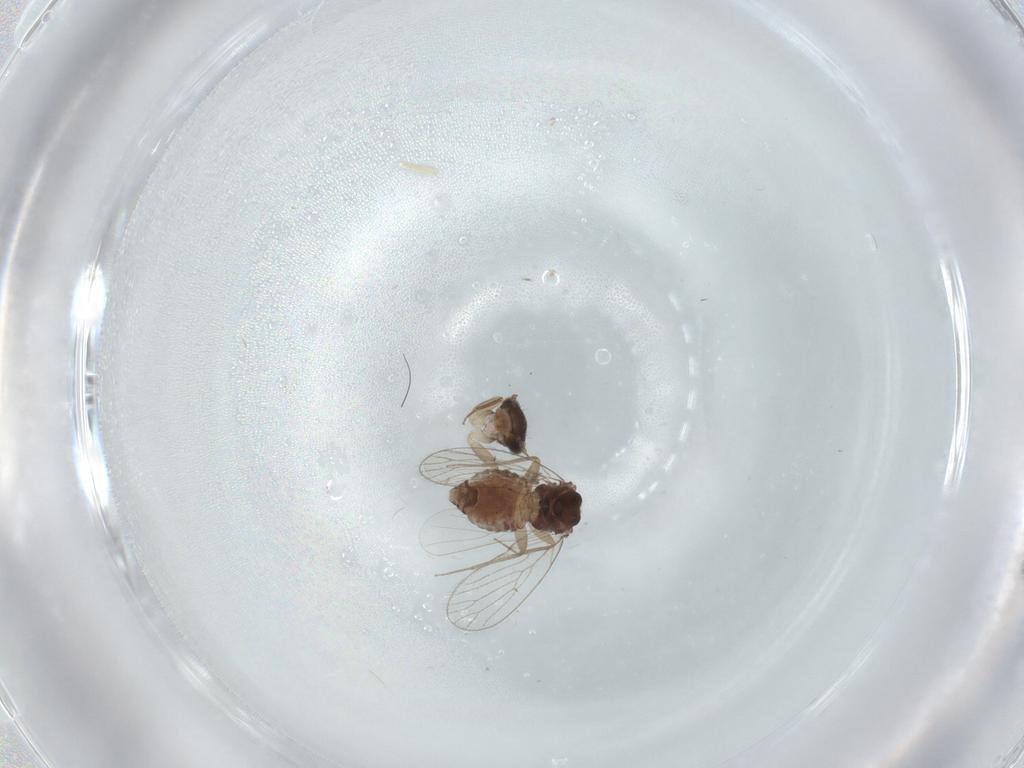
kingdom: Animalia
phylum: Arthropoda
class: Insecta
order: Psocodea
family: Psoquillidae
